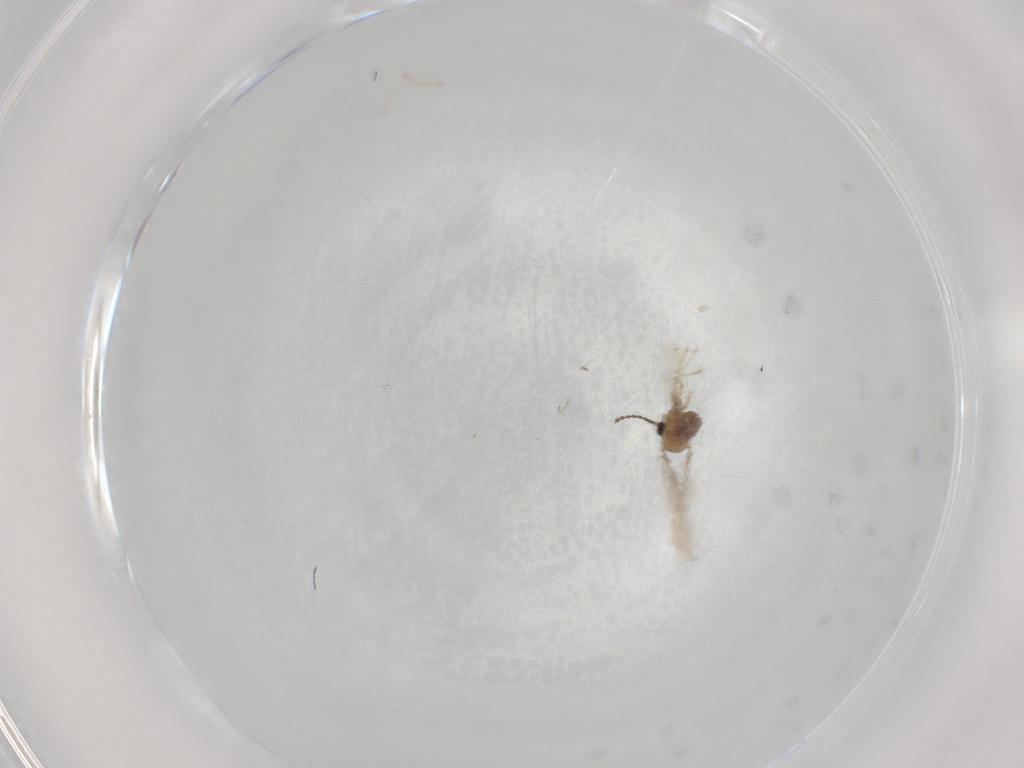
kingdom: Animalia
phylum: Arthropoda
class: Insecta
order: Diptera
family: Cecidomyiidae
